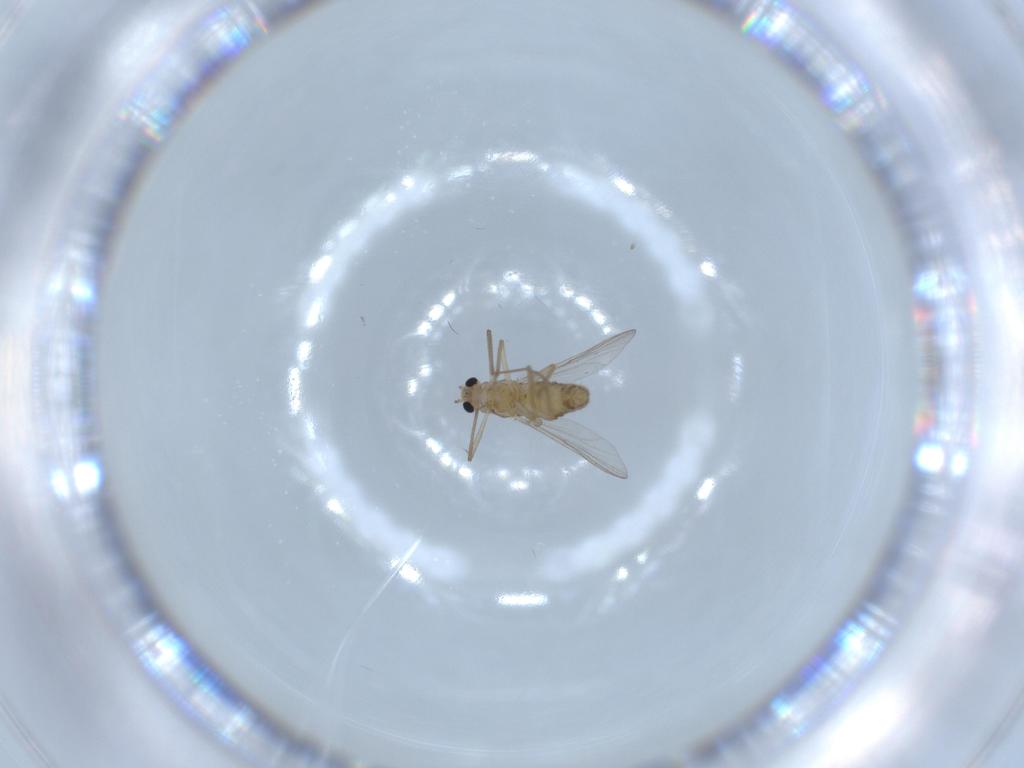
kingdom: Animalia
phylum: Arthropoda
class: Insecta
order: Diptera
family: Chironomidae
